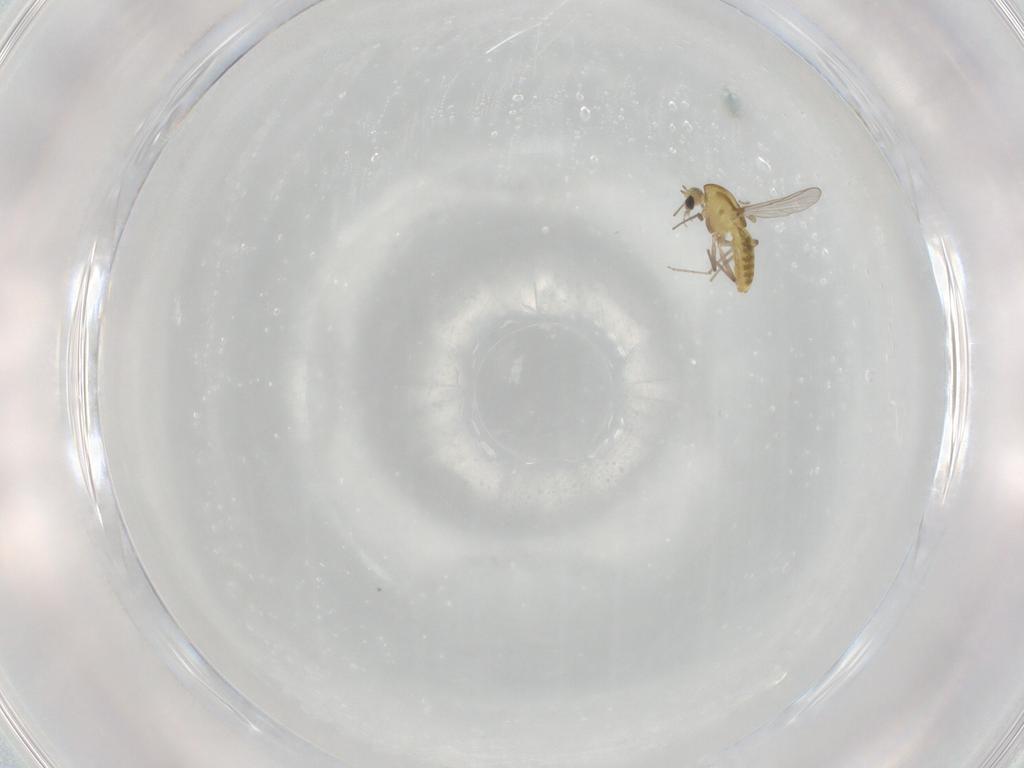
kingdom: Animalia
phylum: Arthropoda
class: Insecta
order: Diptera
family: Chironomidae
